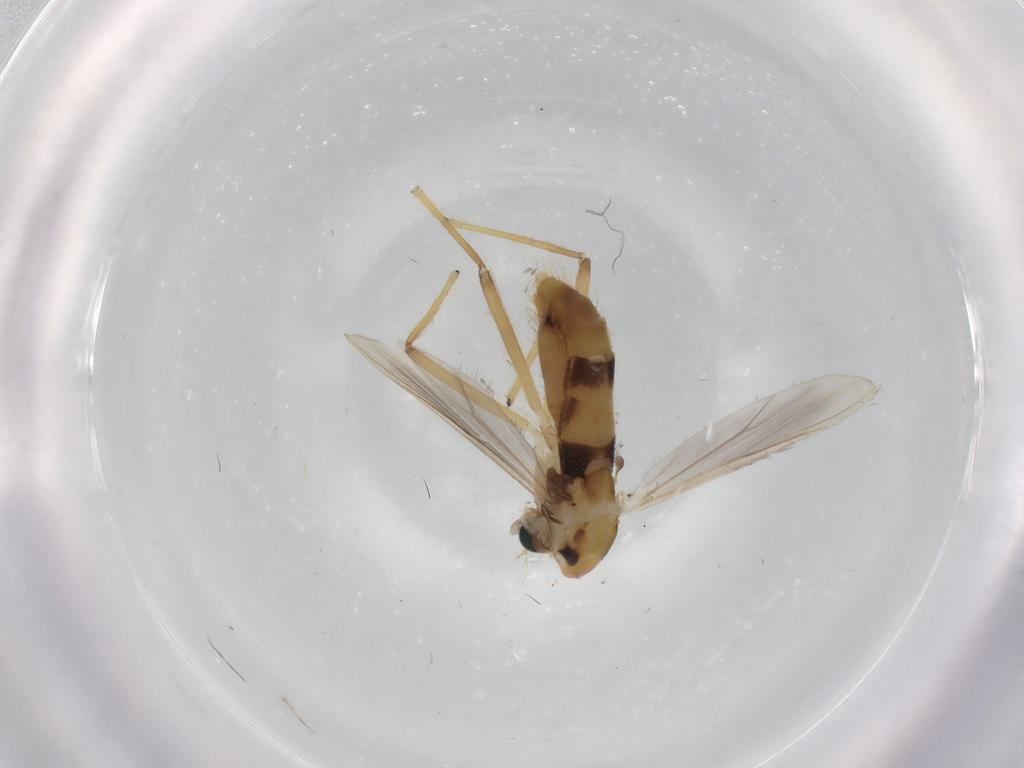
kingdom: Animalia
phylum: Arthropoda
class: Insecta
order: Diptera
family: Chironomidae
